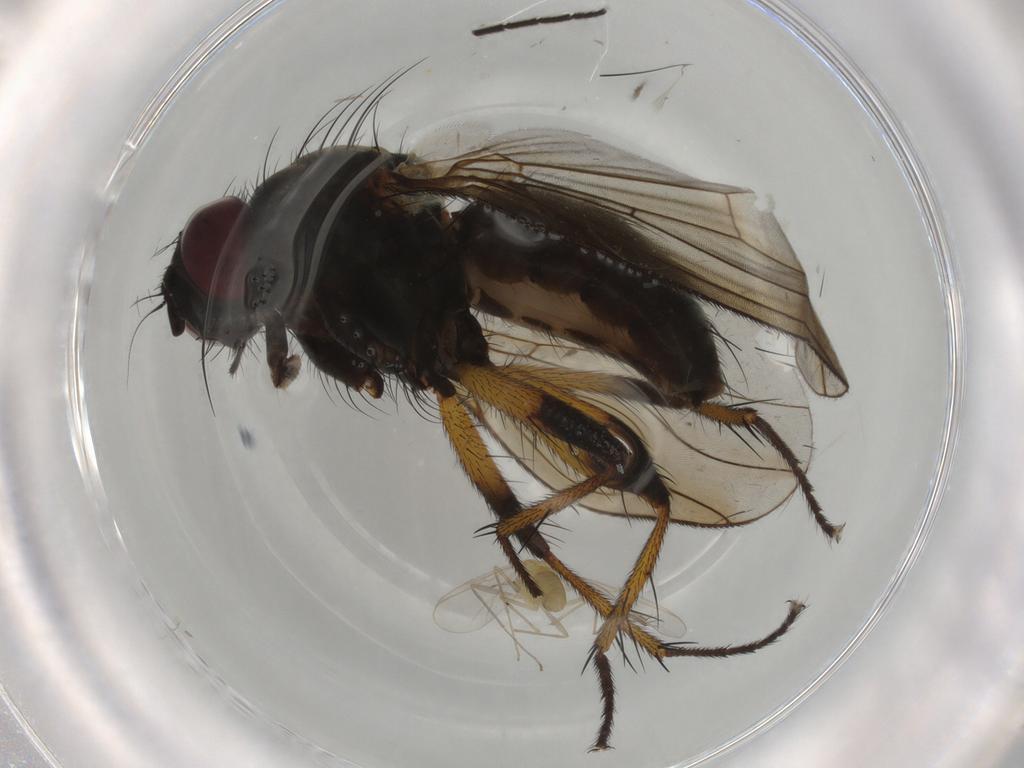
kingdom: Animalia
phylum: Arthropoda
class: Insecta
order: Diptera
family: Muscidae
